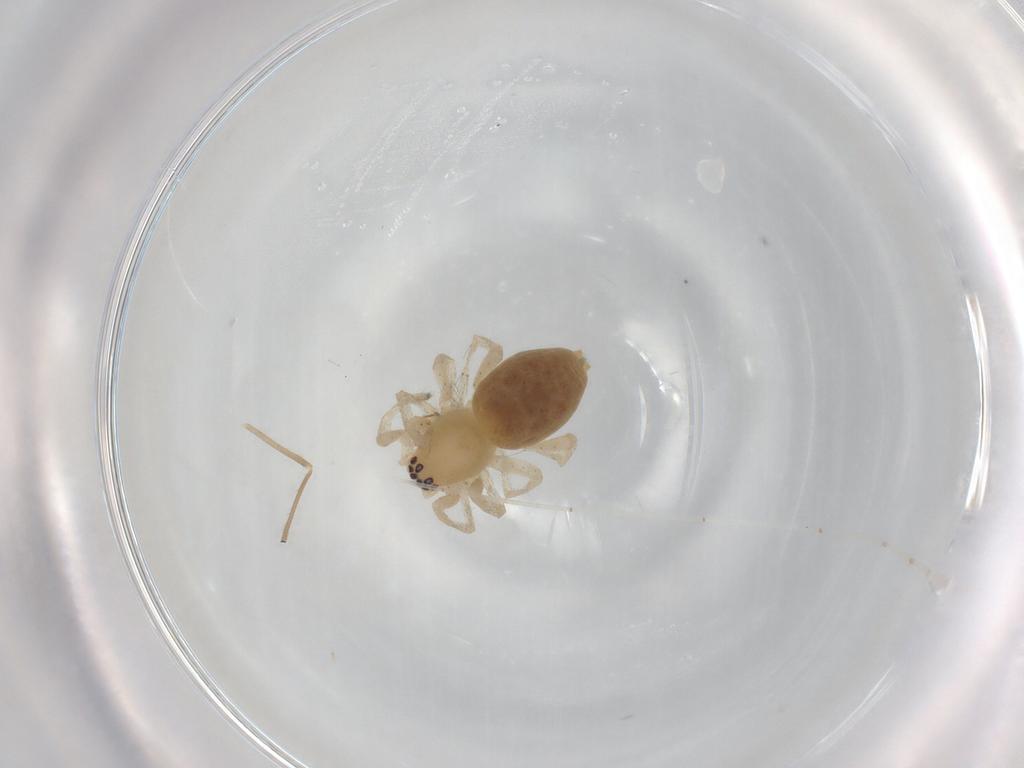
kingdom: Animalia
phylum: Arthropoda
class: Arachnida
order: Araneae
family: Clubionidae
